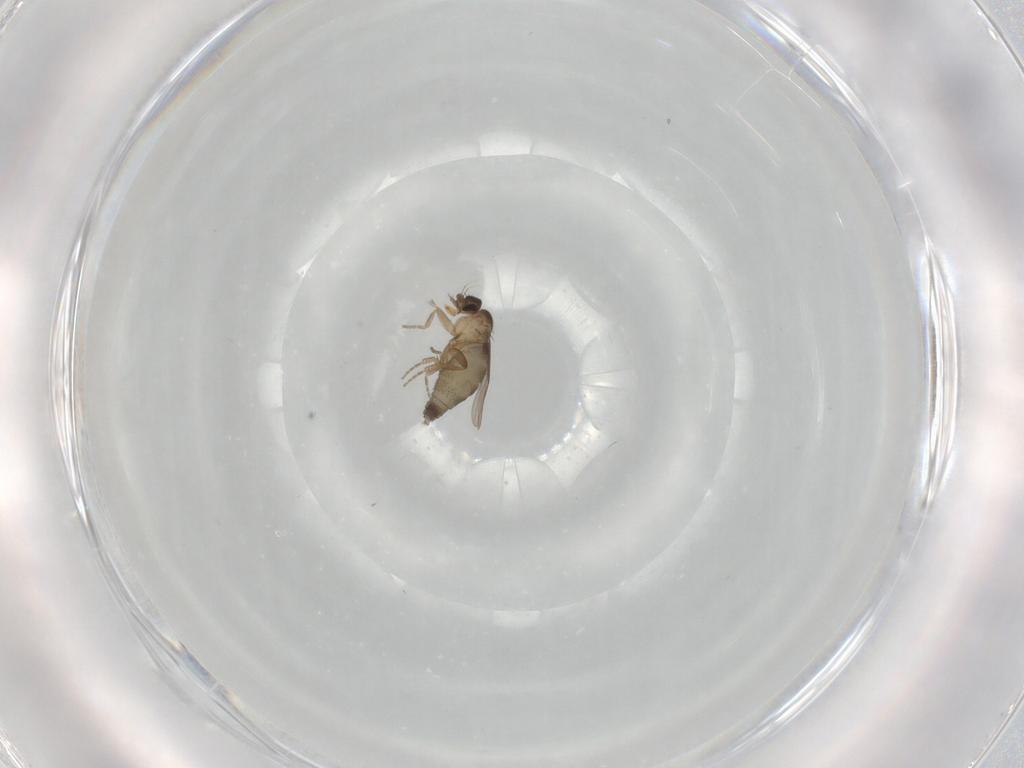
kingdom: Animalia
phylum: Arthropoda
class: Insecta
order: Diptera
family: Phoridae
